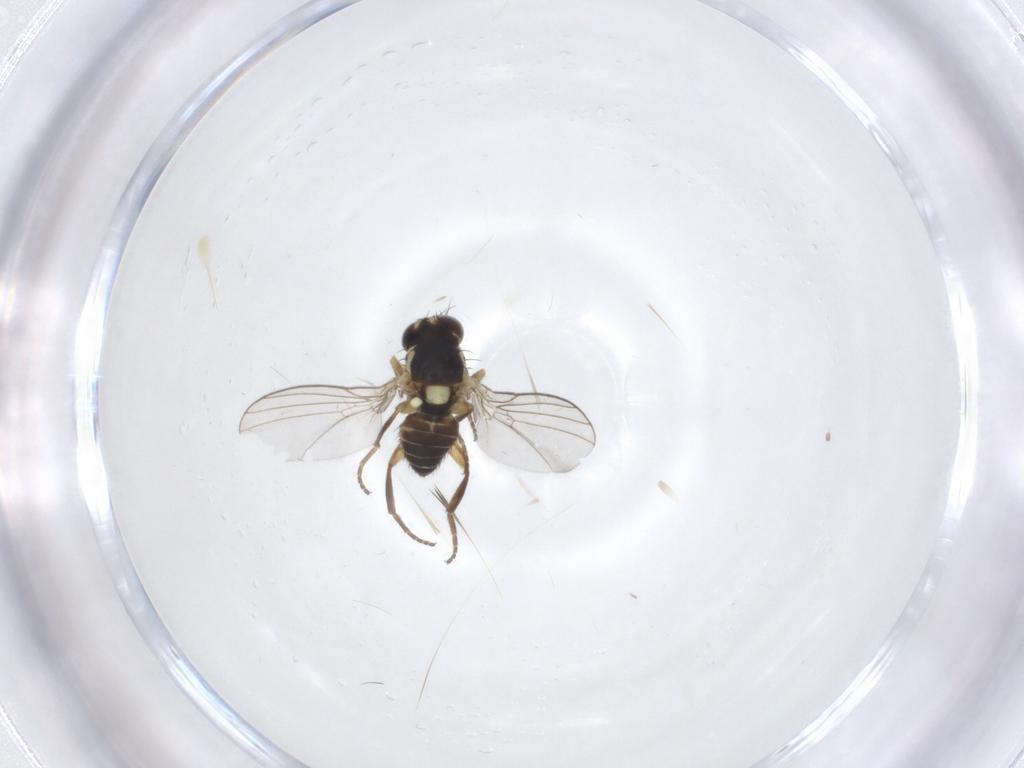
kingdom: Animalia
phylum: Arthropoda
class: Insecta
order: Diptera
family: Agromyzidae
